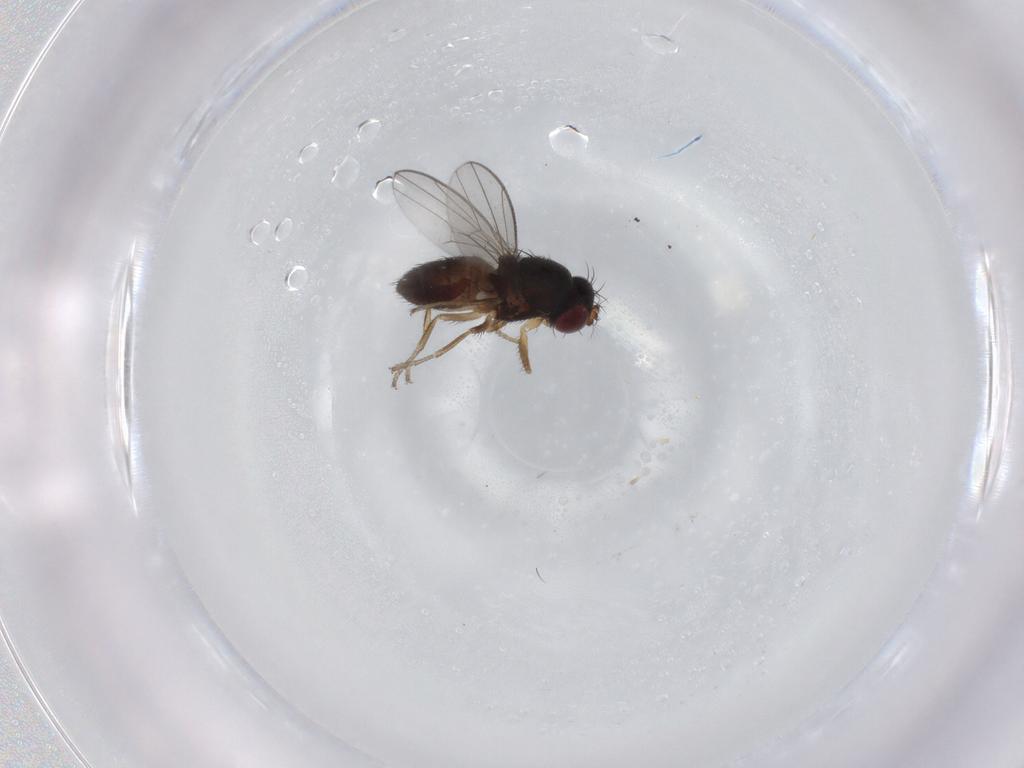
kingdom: Animalia
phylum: Arthropoda
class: Insecta
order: Diptera
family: Ephydridae
